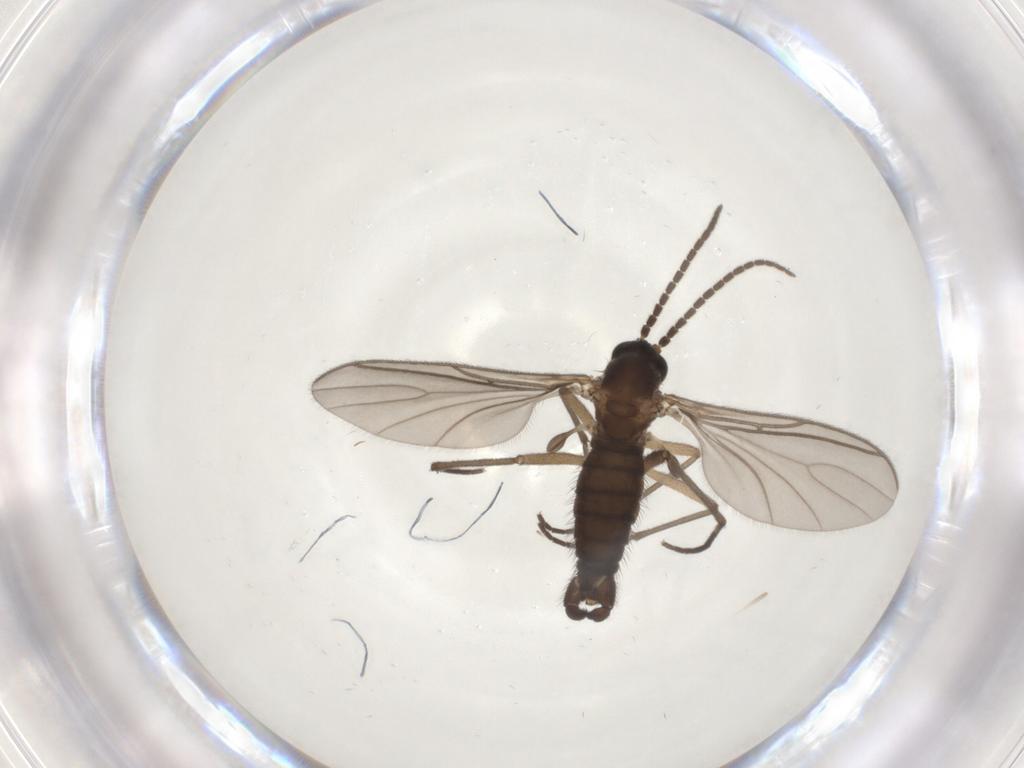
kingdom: Animalia
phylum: Arthropoda
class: Insecta
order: Diptera
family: Sciaridae
